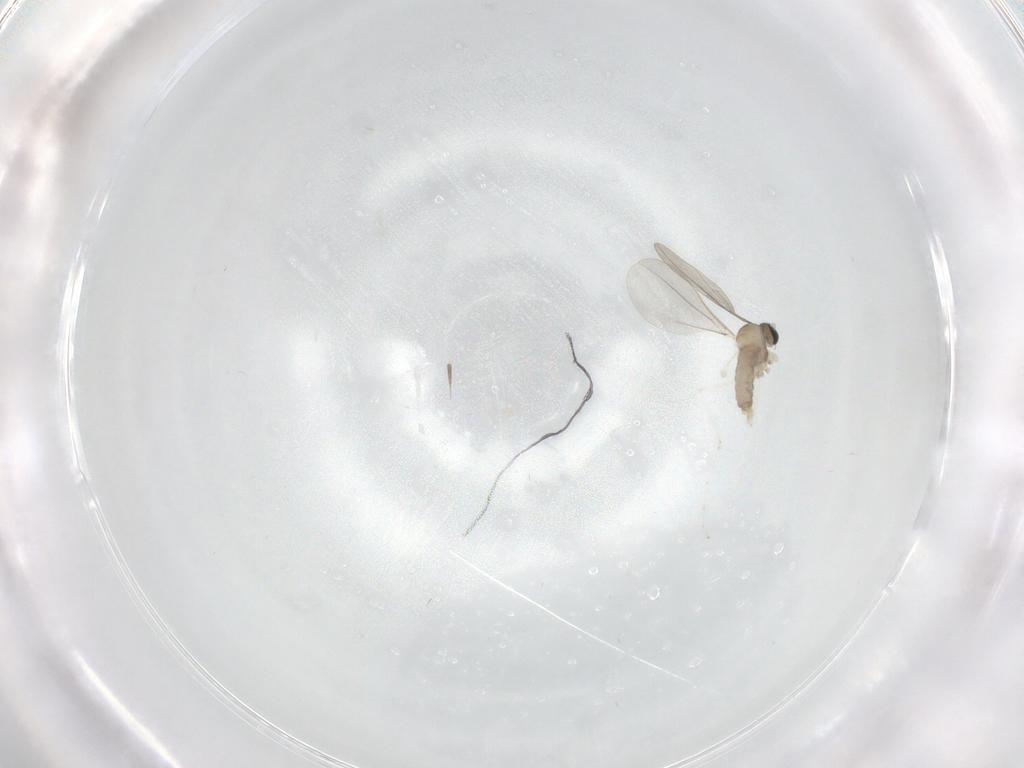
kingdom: Animalia
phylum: Arthropoda
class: Insecta
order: Diptera
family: Cecidomyiidae
